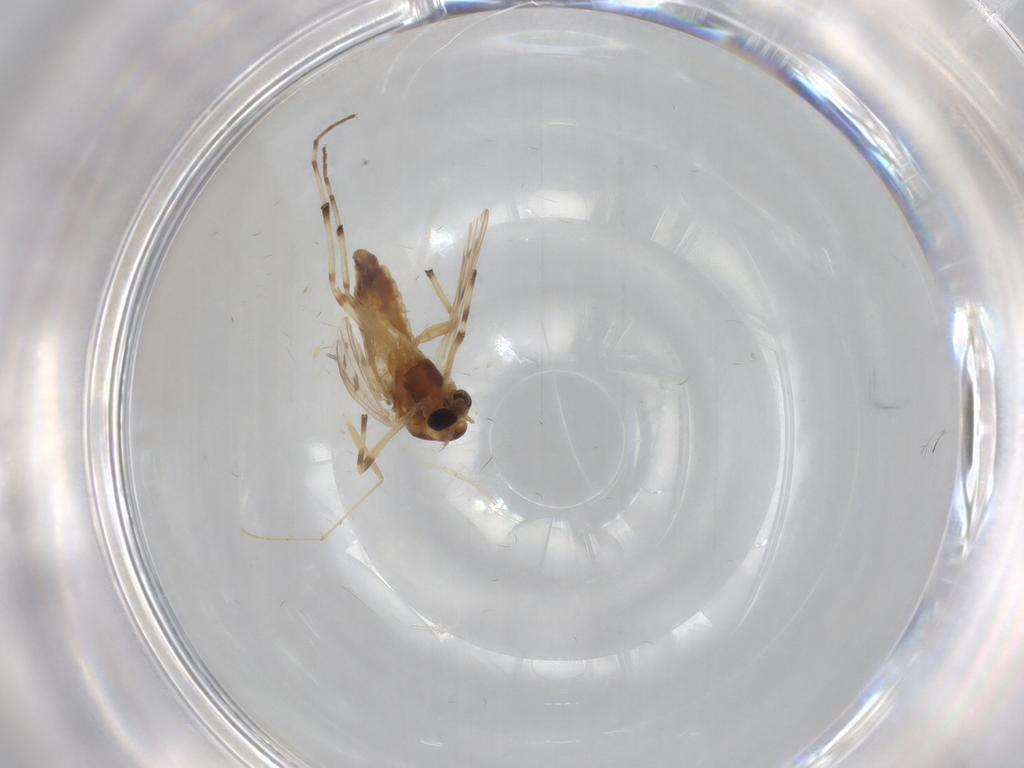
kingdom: Animalia
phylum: Arthropoda
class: Insecta
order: Diptera
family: Chironomidae
